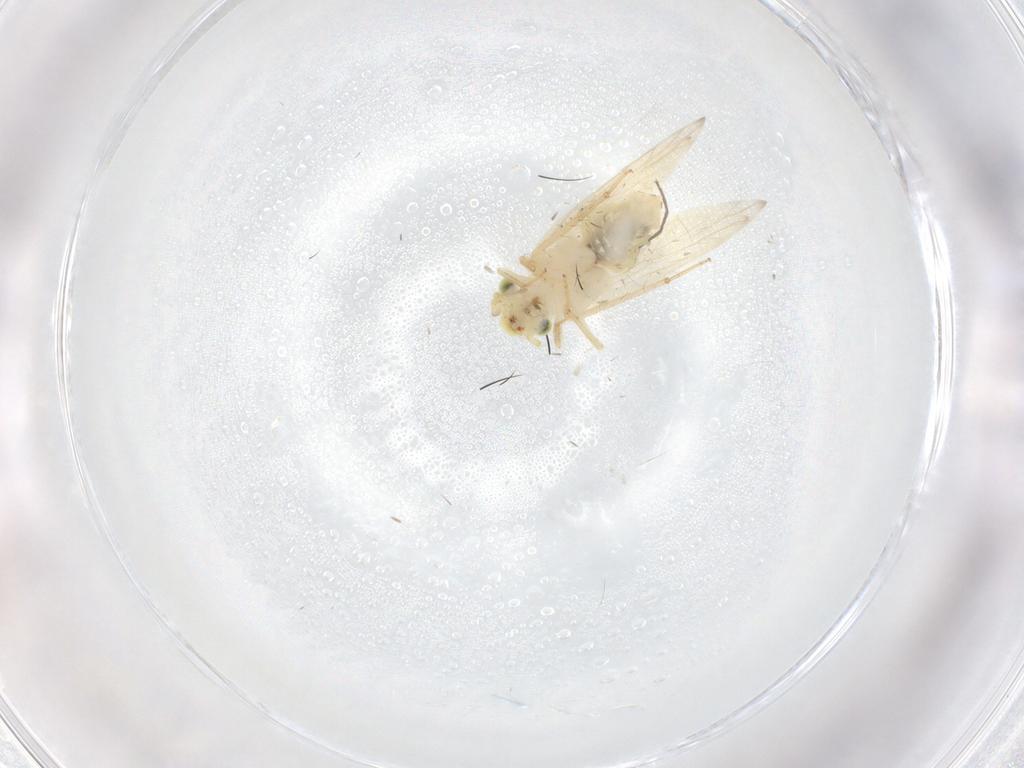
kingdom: Animalia
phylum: Arthropoda
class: Insecta
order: Psocodea
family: Lepidopsocidae
